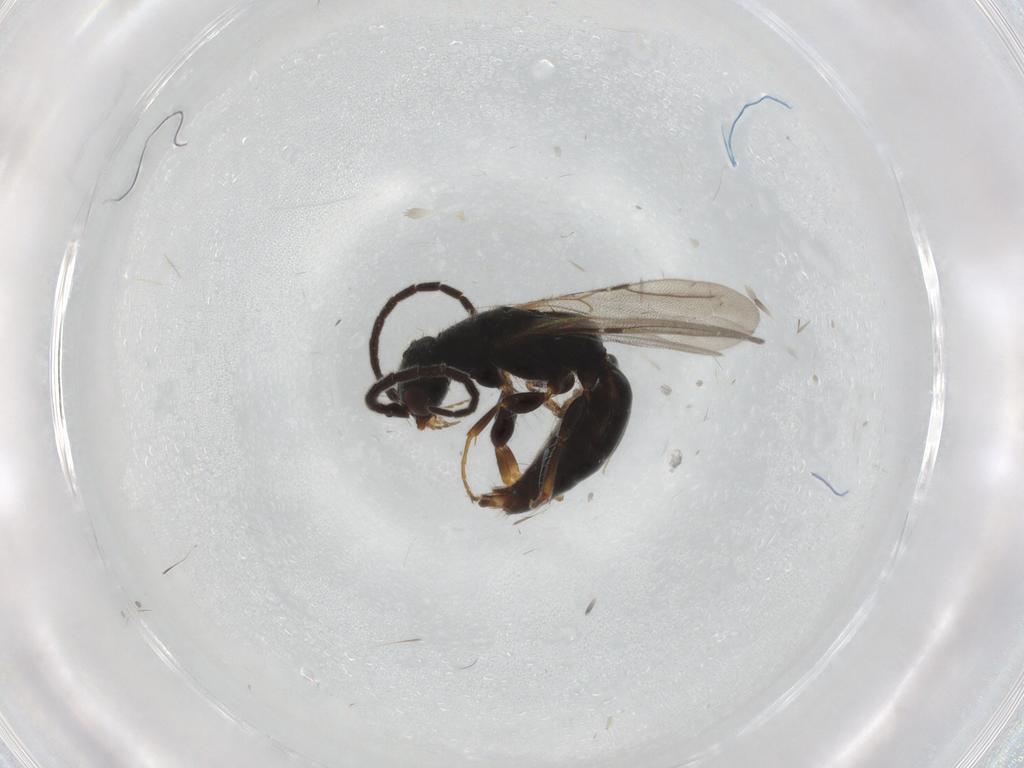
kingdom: Animalia
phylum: Arthropoda
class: Insecta
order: Hymenoptera
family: Bethylidae
